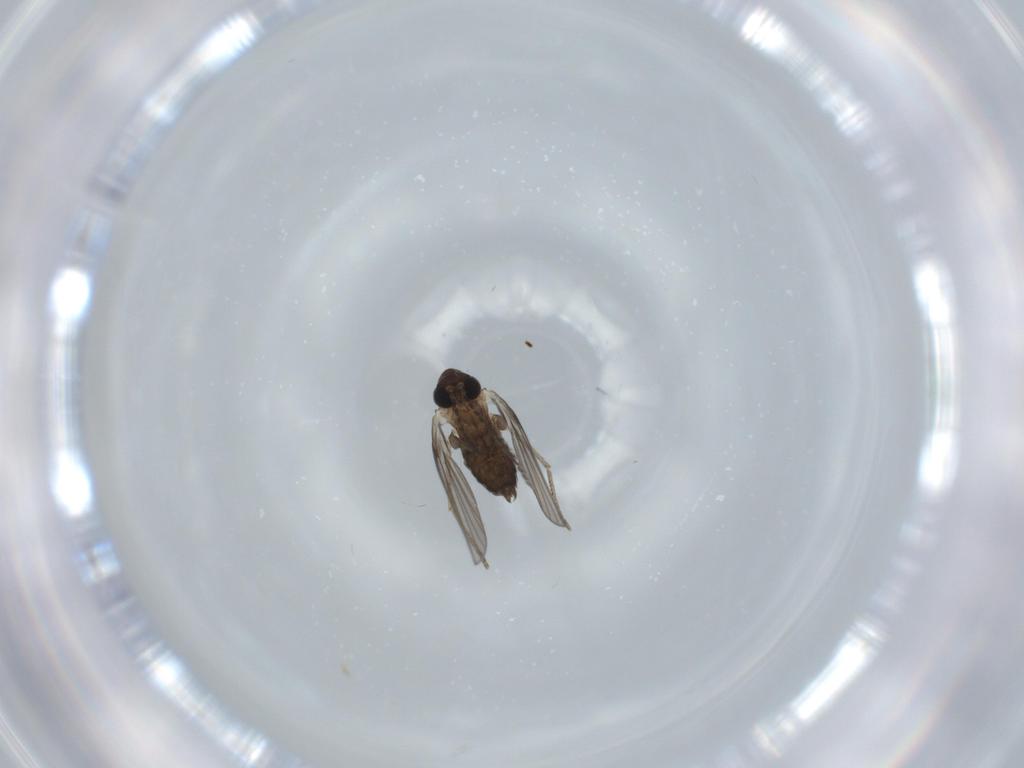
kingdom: Animalia
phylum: Arthropoda
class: Insecta
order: Diptera
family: Psychodidae
